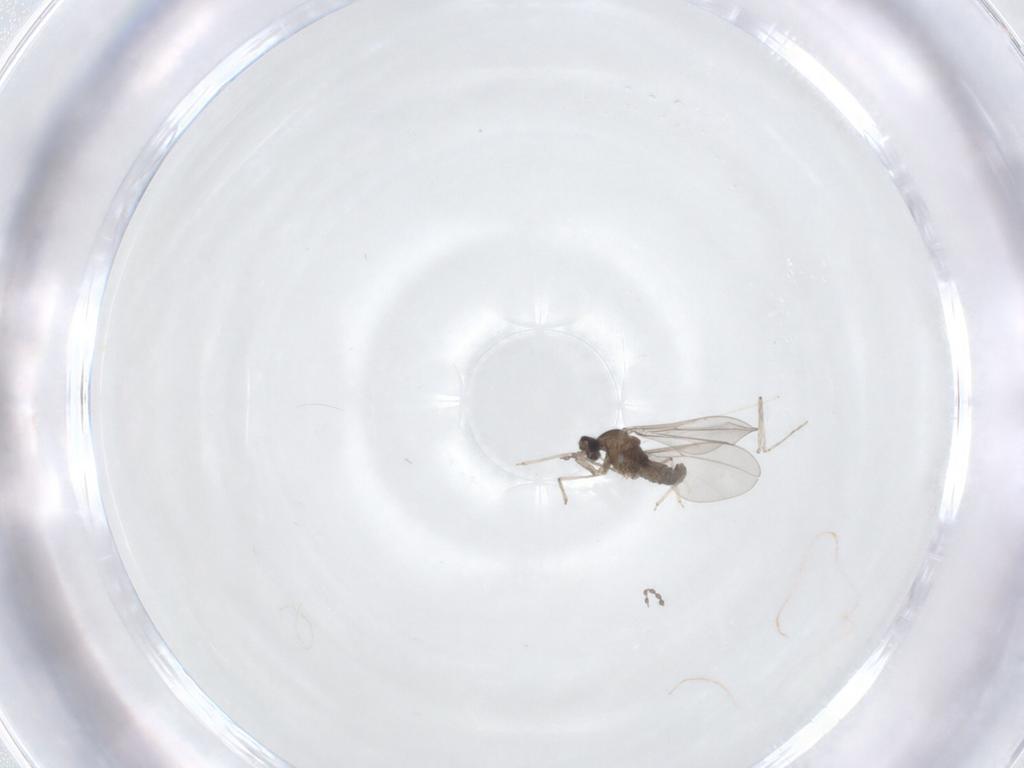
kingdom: Animalia
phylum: Arthropoda
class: Insecta
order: Diptera
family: Cecidomyiidae
